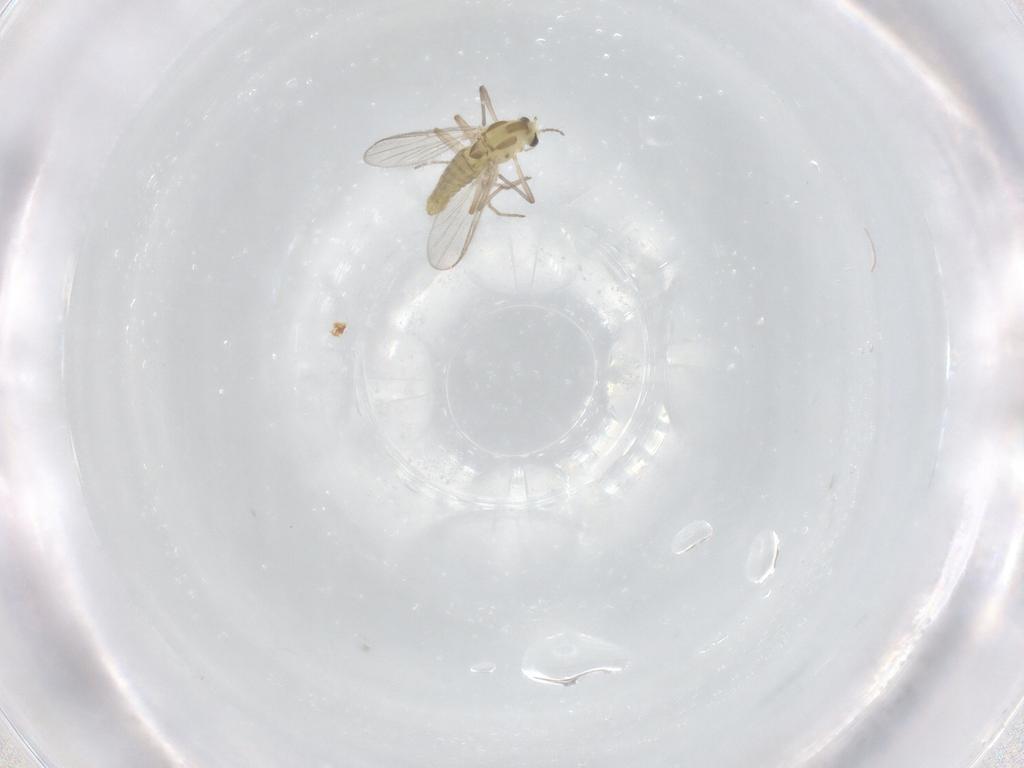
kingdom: Animalia
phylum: Arthropoda
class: Insecta
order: Diptera
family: Chironomidae
